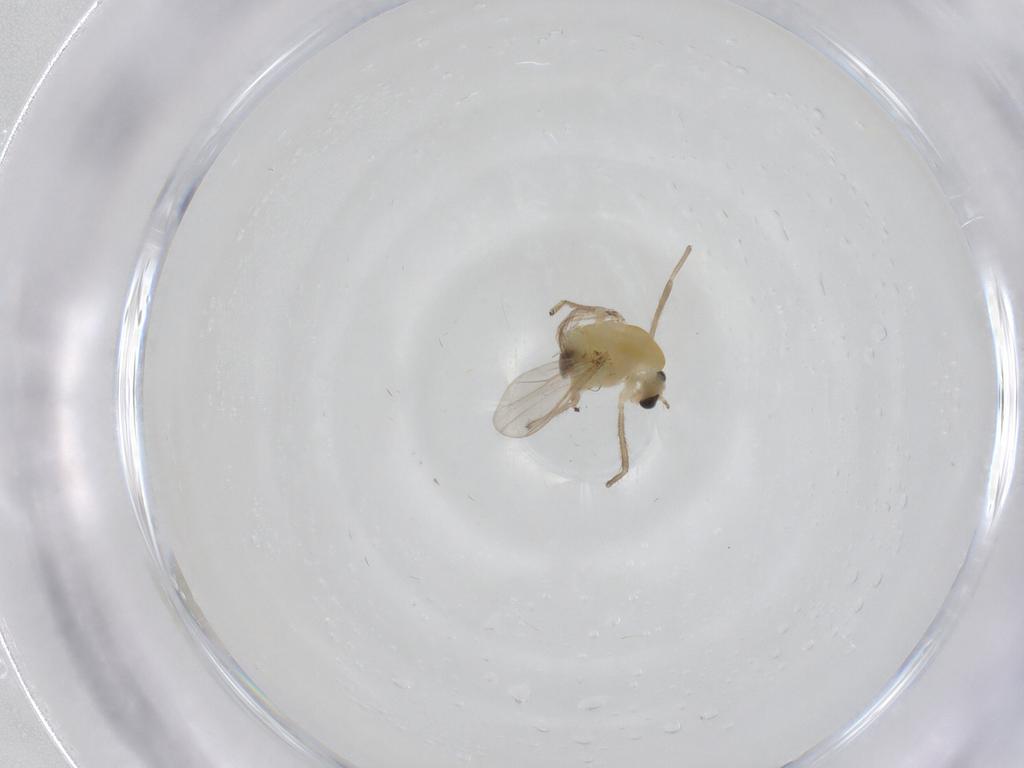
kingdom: Animalia
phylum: Arthropoda
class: Insecta
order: Diptera
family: Chironomidae
